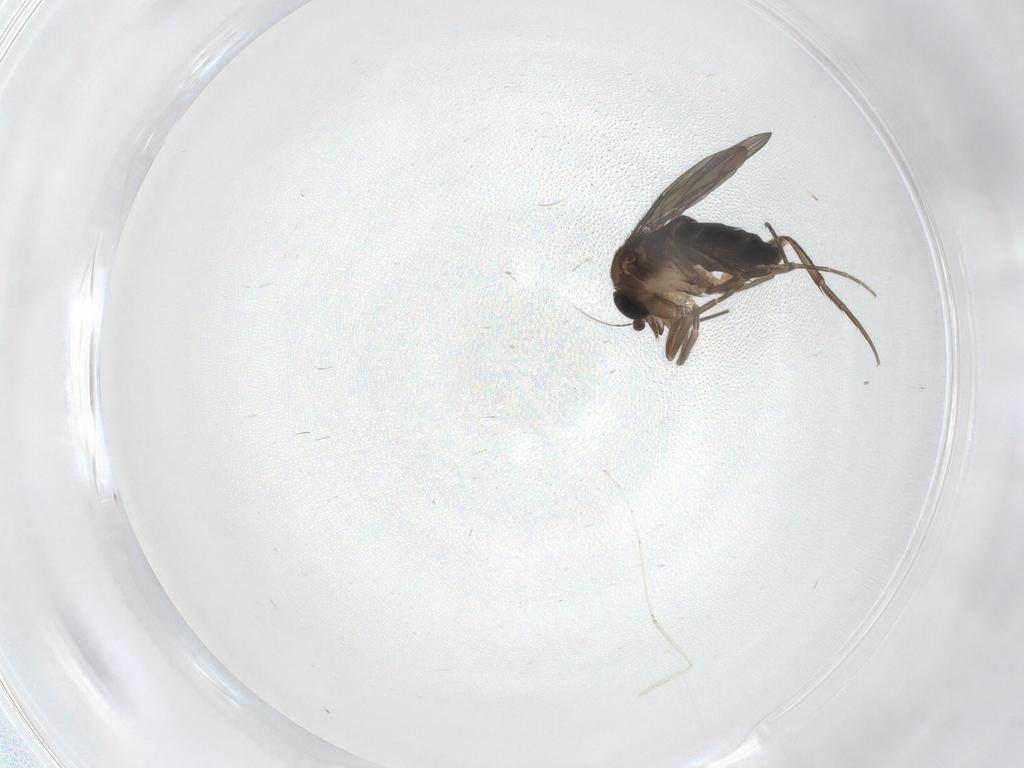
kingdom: Animalia
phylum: Arthropoda
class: Insecta
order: Diptera
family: Phoridae
